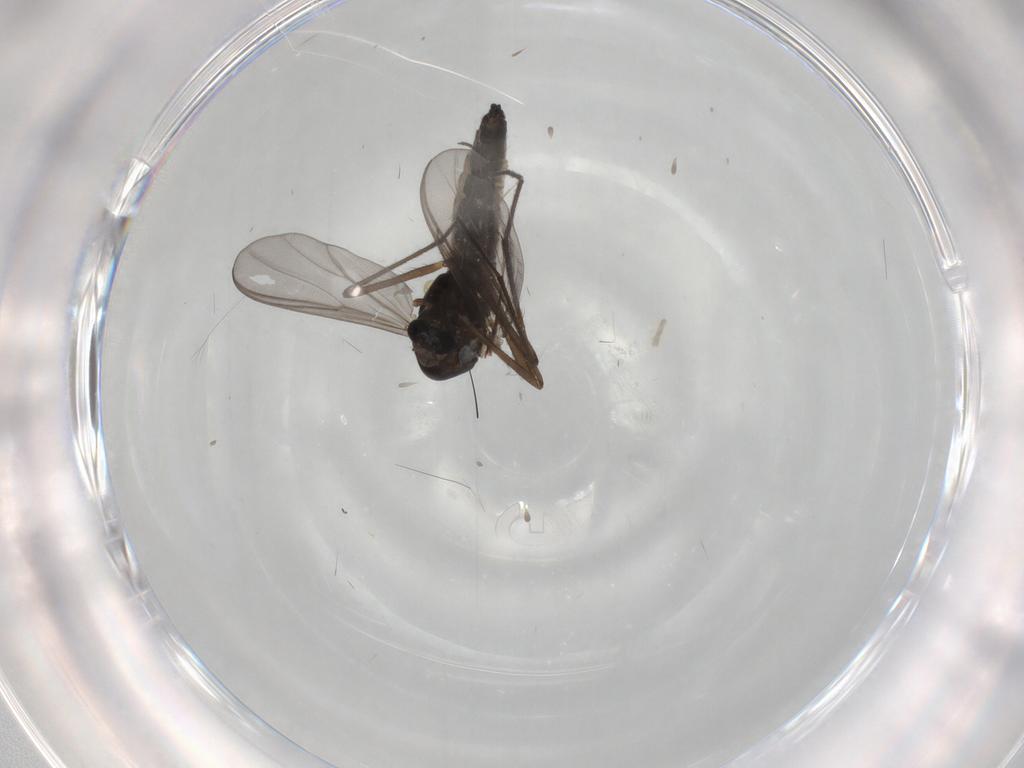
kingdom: Animalia
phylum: Arthropoda
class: Insecta
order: Diptera
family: Chironomidae
